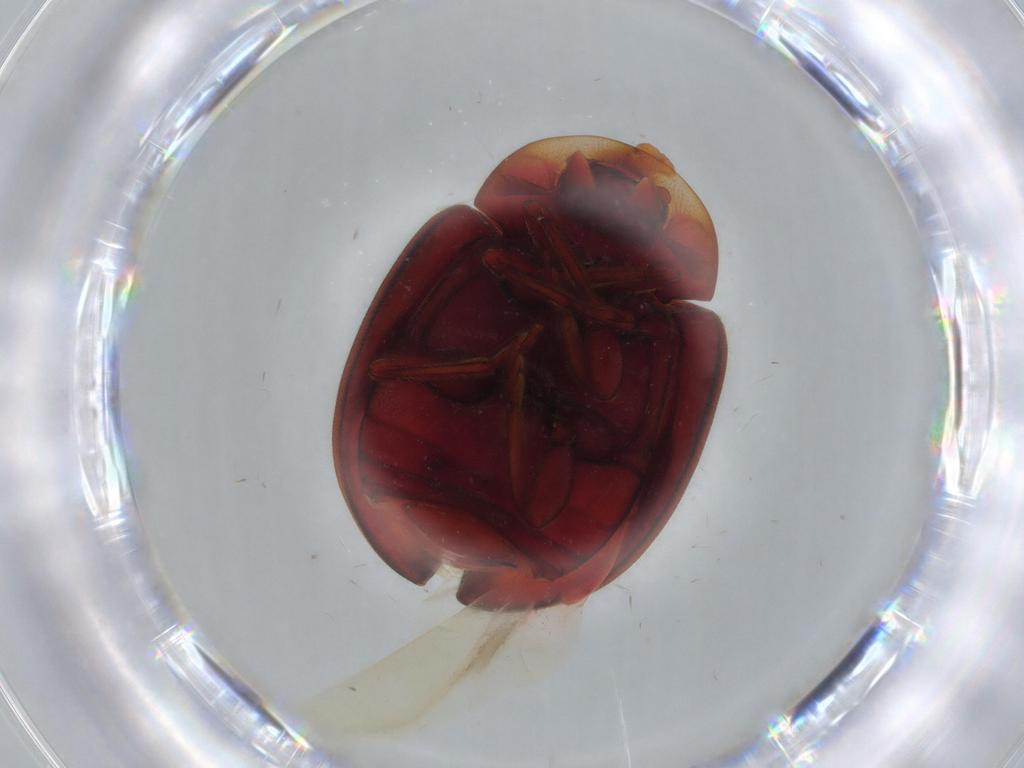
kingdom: Animalia
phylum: Arthropoda
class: Insecta
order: Coleoptera
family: Coccinellidae
